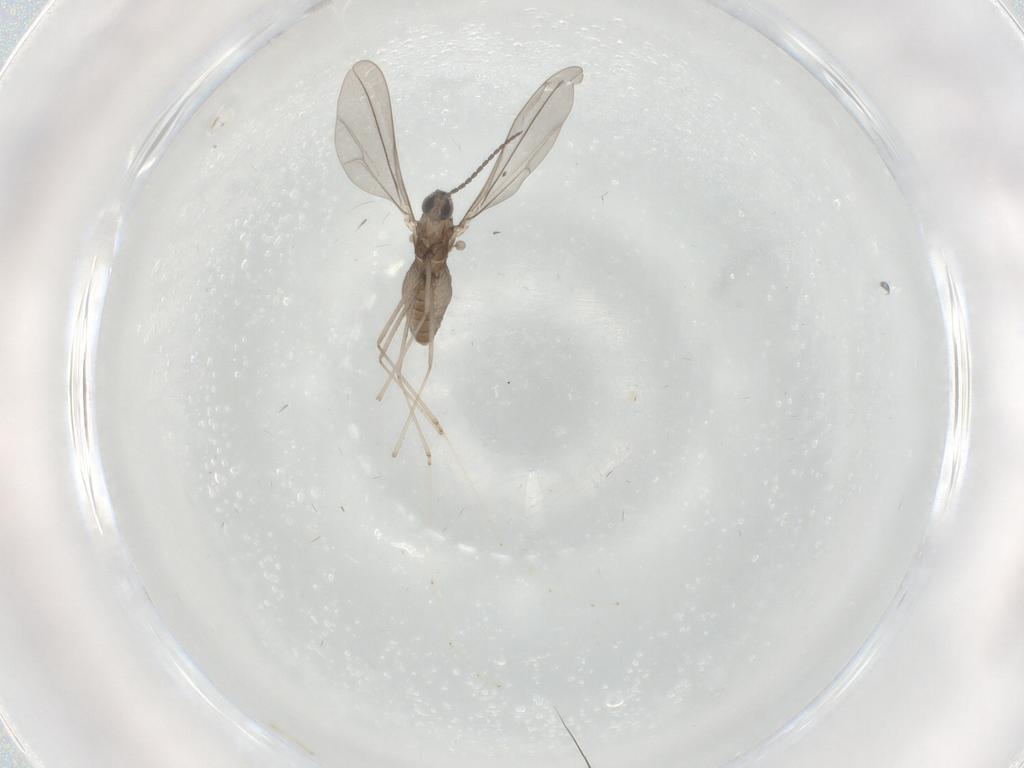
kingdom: Animalia
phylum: Arthropoda
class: Insecta
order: Diptera
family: Cecidomyiidae
